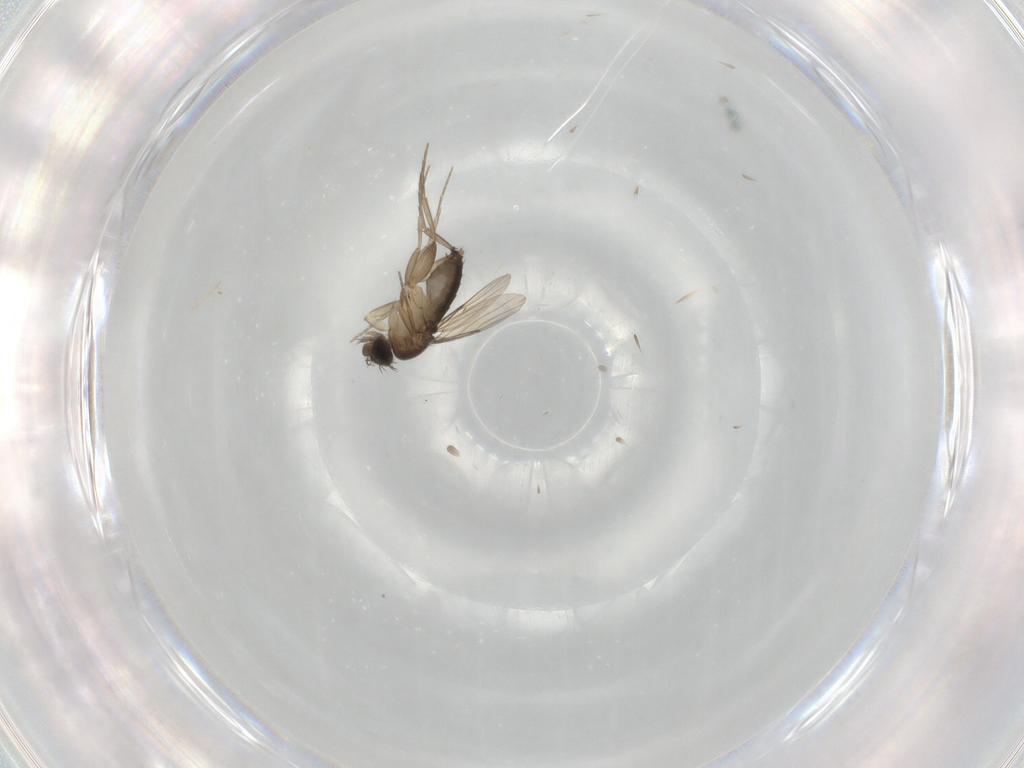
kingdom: Animalia
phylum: Arthropoda
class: Insecta
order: Diptera
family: Phoridae
